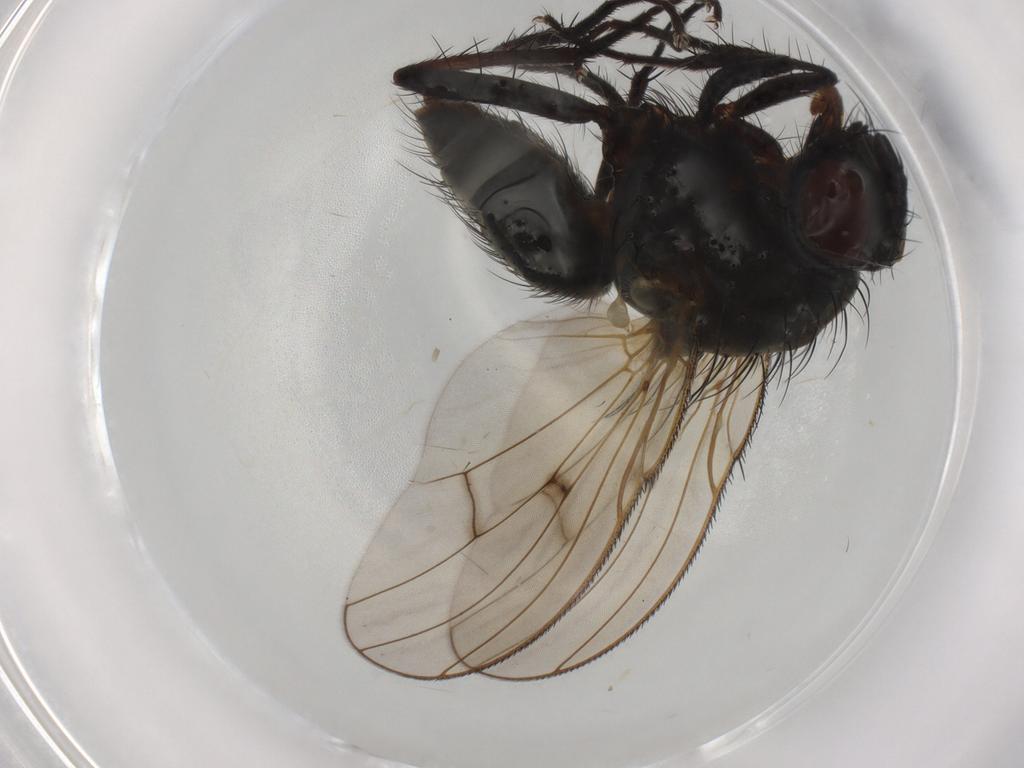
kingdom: Animalia
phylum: Arthropoda
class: Insecta
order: Diptera
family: Anthomyiidae
